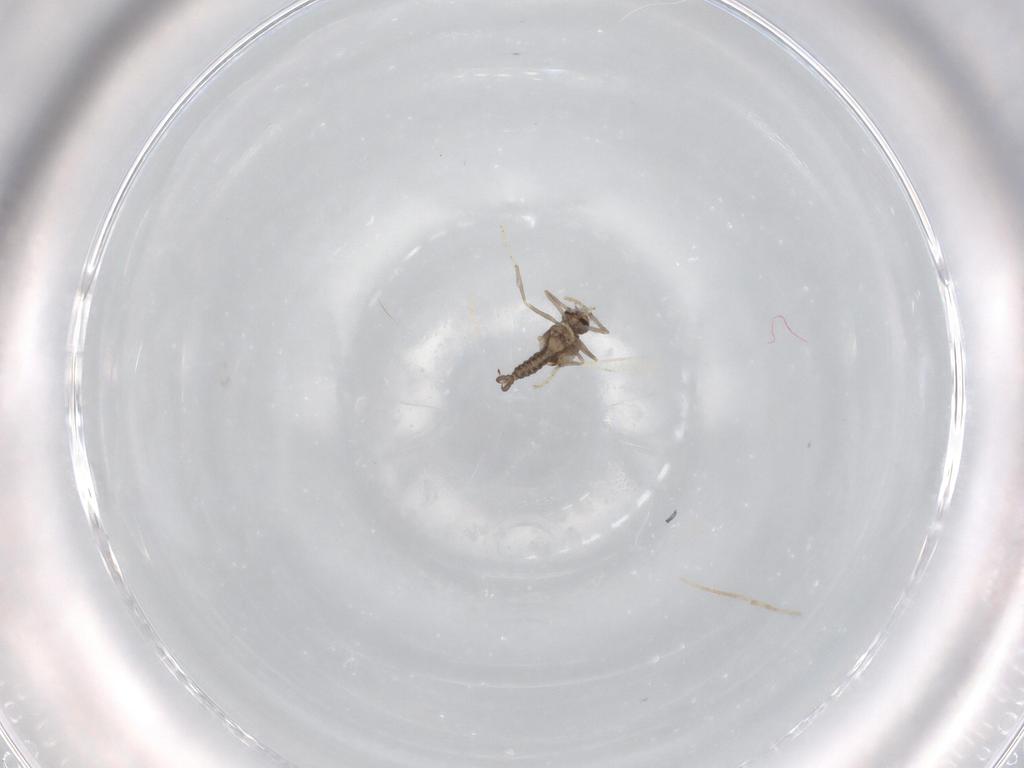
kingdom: Animalia
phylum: Arthropoda
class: Insecta
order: Diptera
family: Ceratopogonidae
